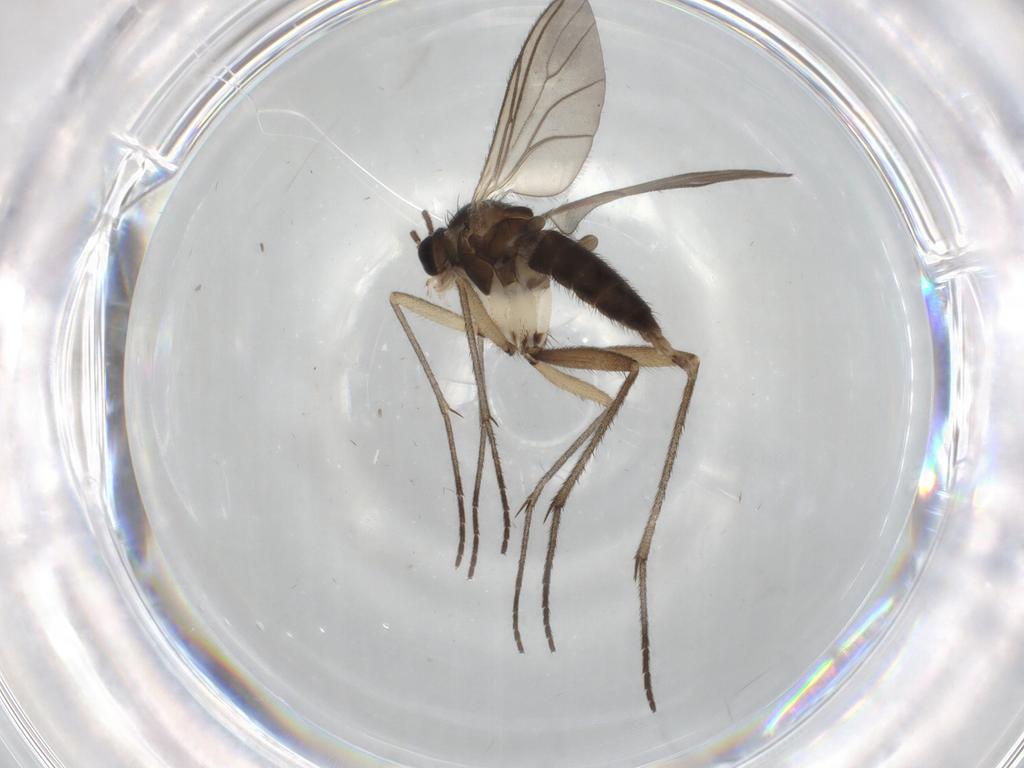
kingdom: Animalia
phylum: Arthropoda
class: Insecta
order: Diptera
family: Sciaridae
